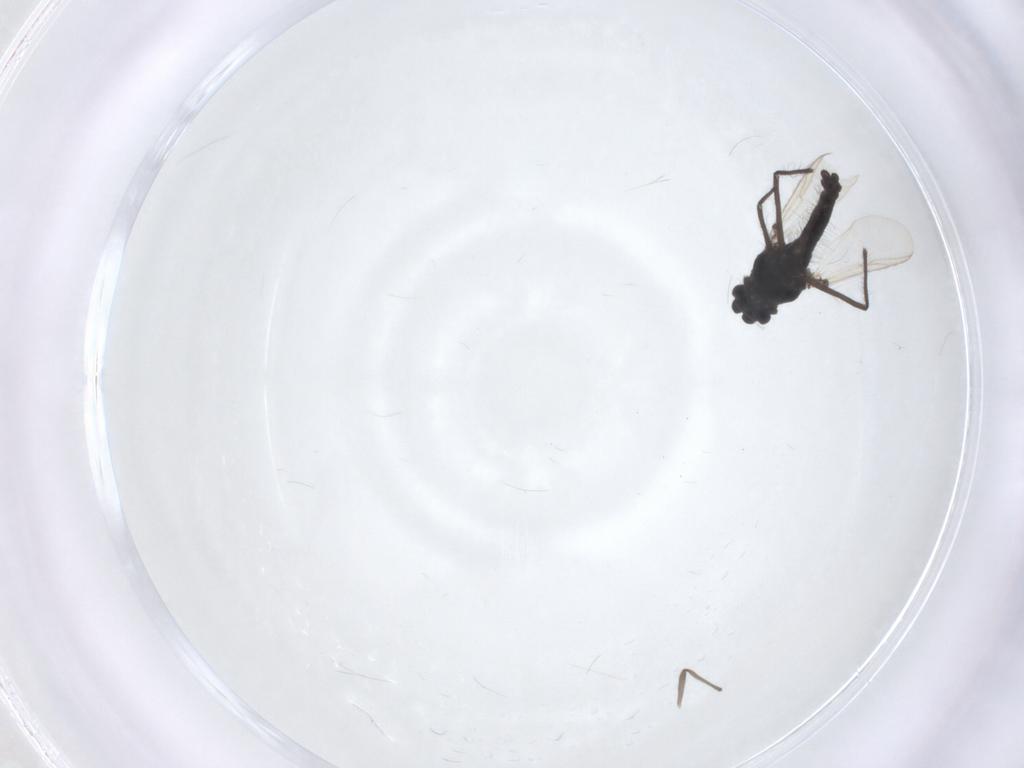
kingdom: Animalia
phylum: Arthropoda
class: Insecta
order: Diptera
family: Chironomidae
